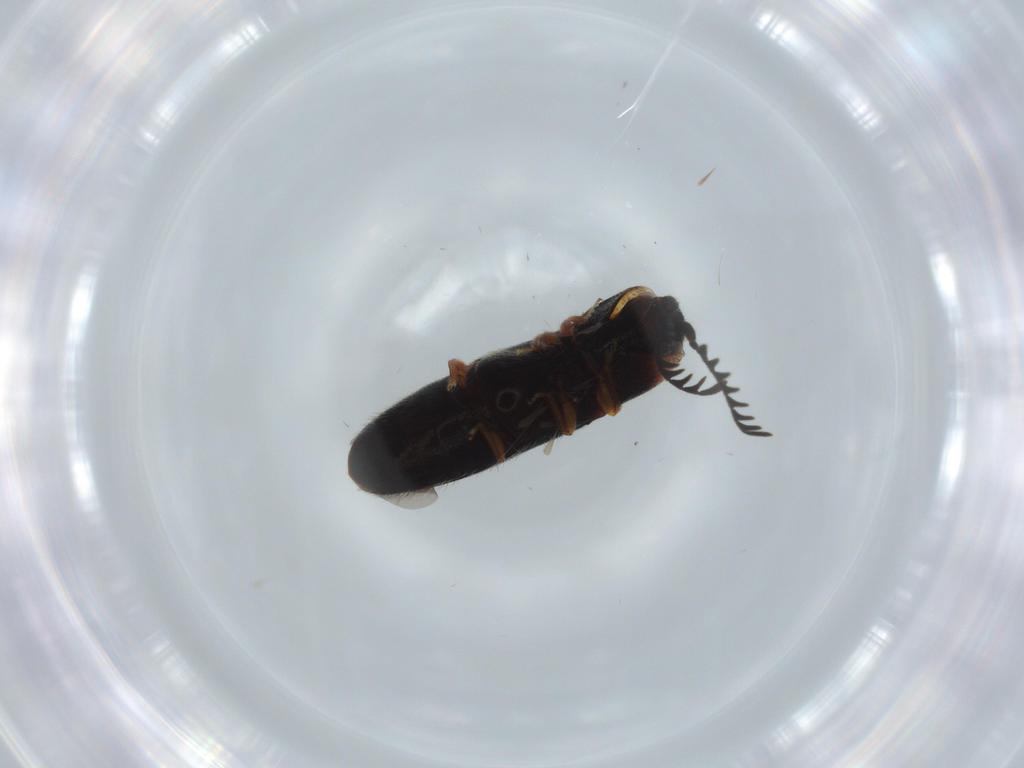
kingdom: Animalia
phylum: Arthropoda
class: Insecta
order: Coleoptera
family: Elateridae
